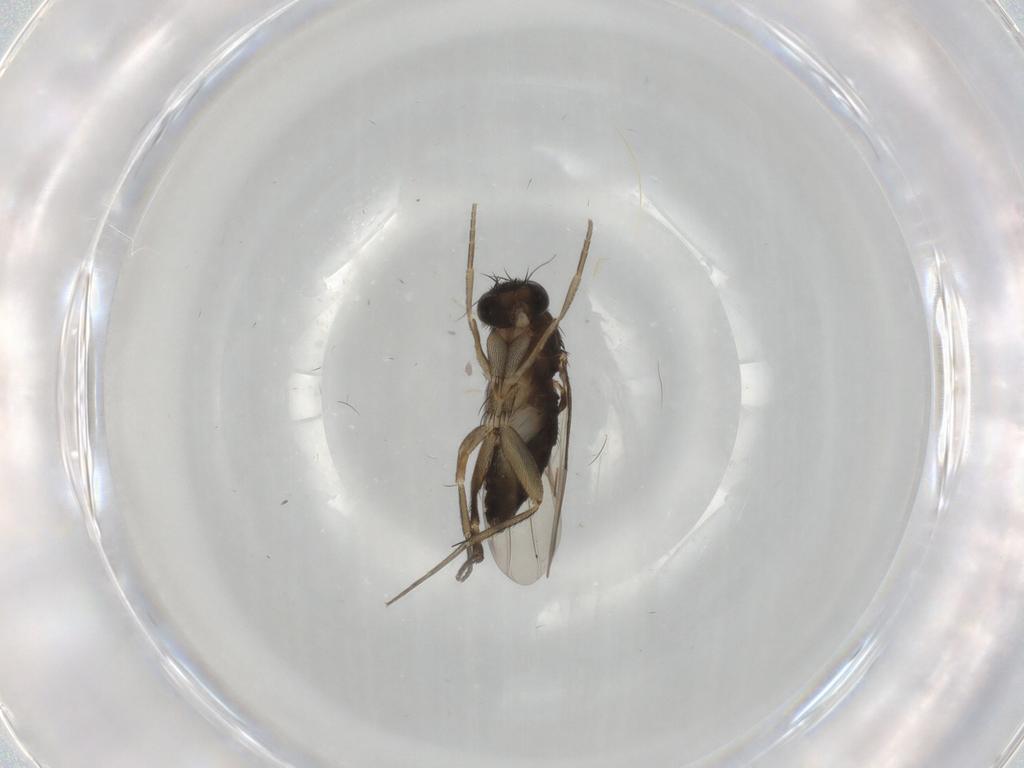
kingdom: Animalia
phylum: Arthropoda
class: Insecta
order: Diptera
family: Phoridae
